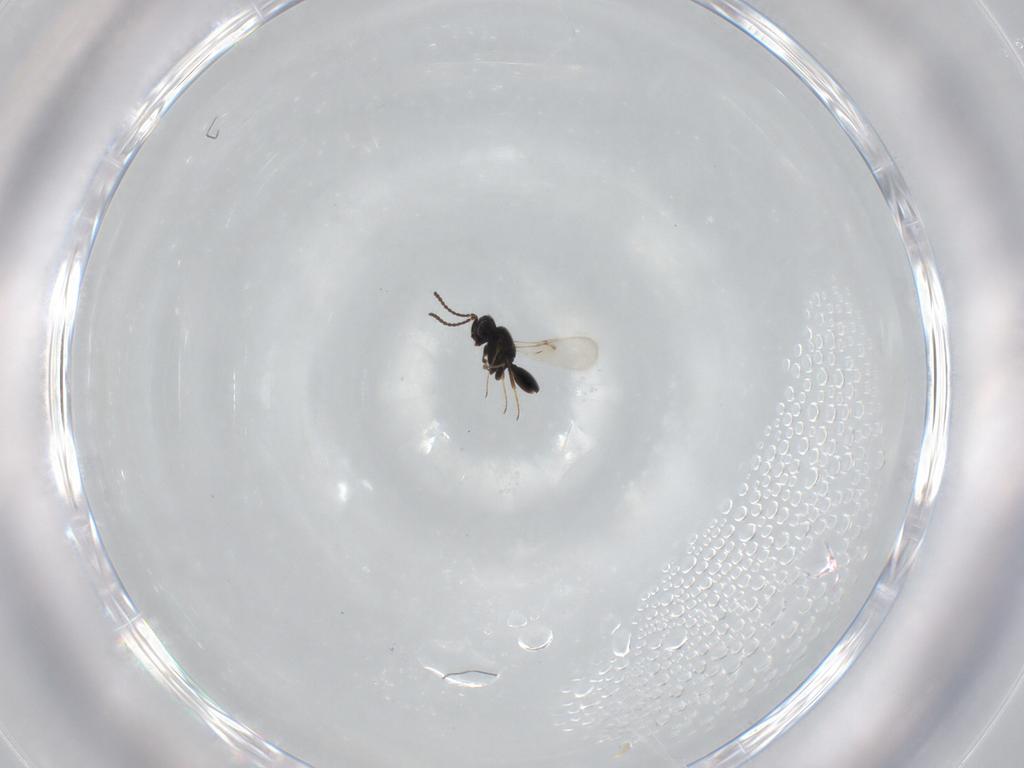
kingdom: Animalia
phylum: Arthropoda
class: Insecta
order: Hymenoptera
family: Scelionidae
